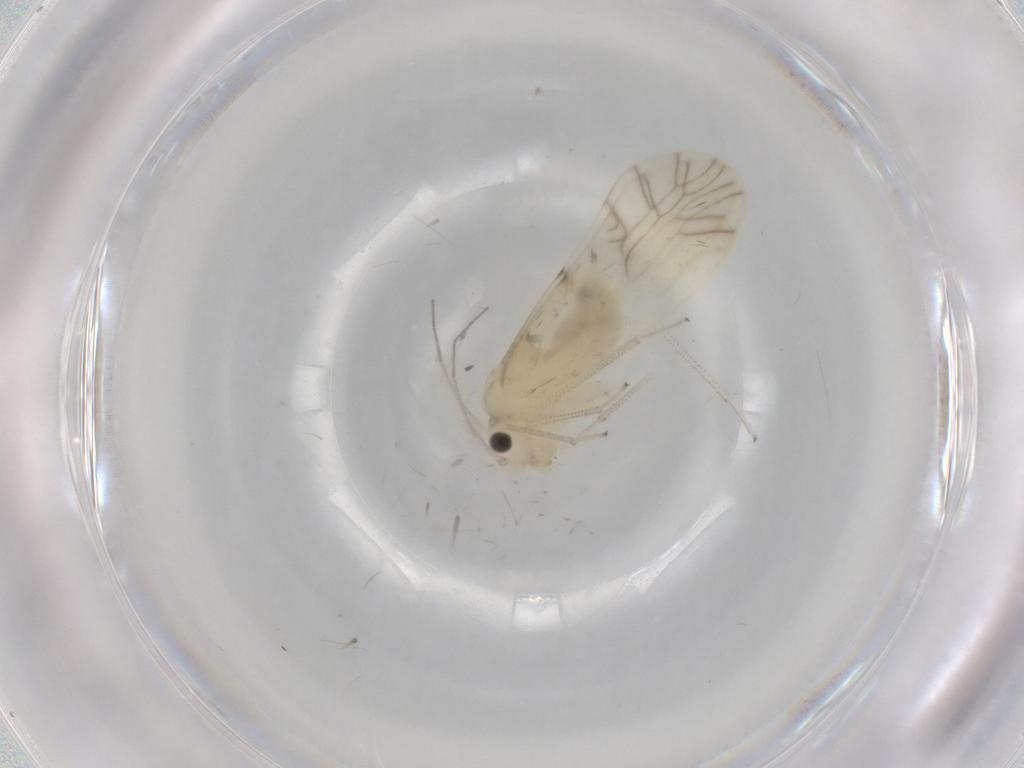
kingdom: Animalia
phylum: Arthropoda
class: Insecta
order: Psocodea
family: Caeciliusidae
